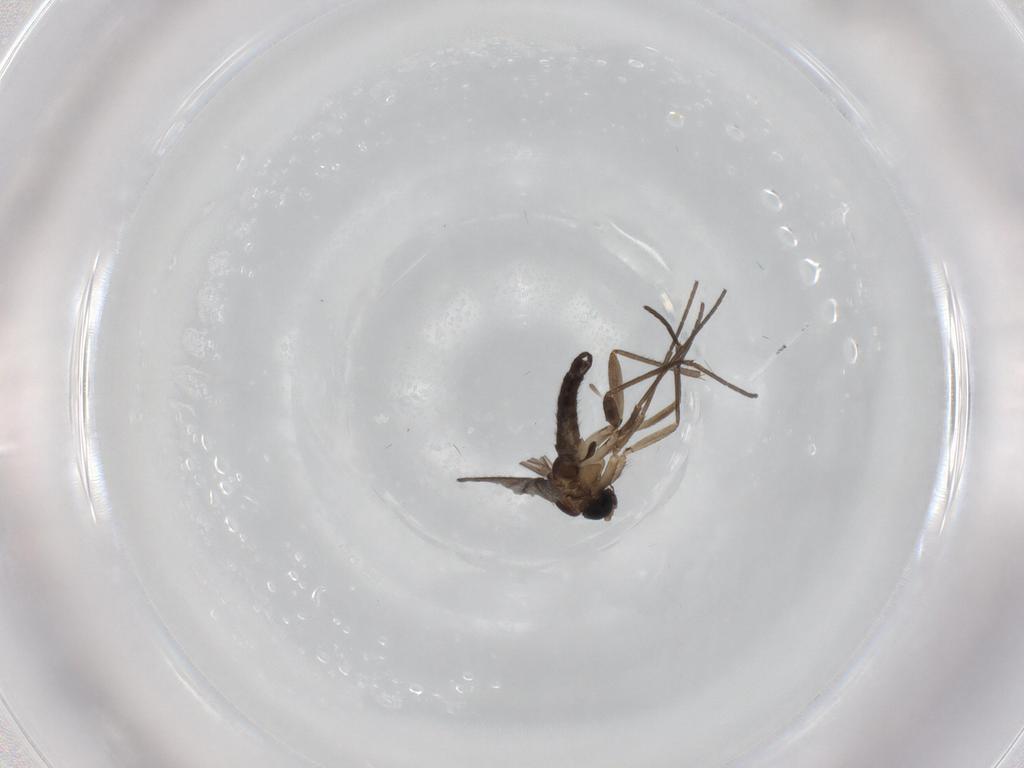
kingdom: Animalia
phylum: Arthropoda
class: Insecta
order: Diptera
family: Sciaridae
